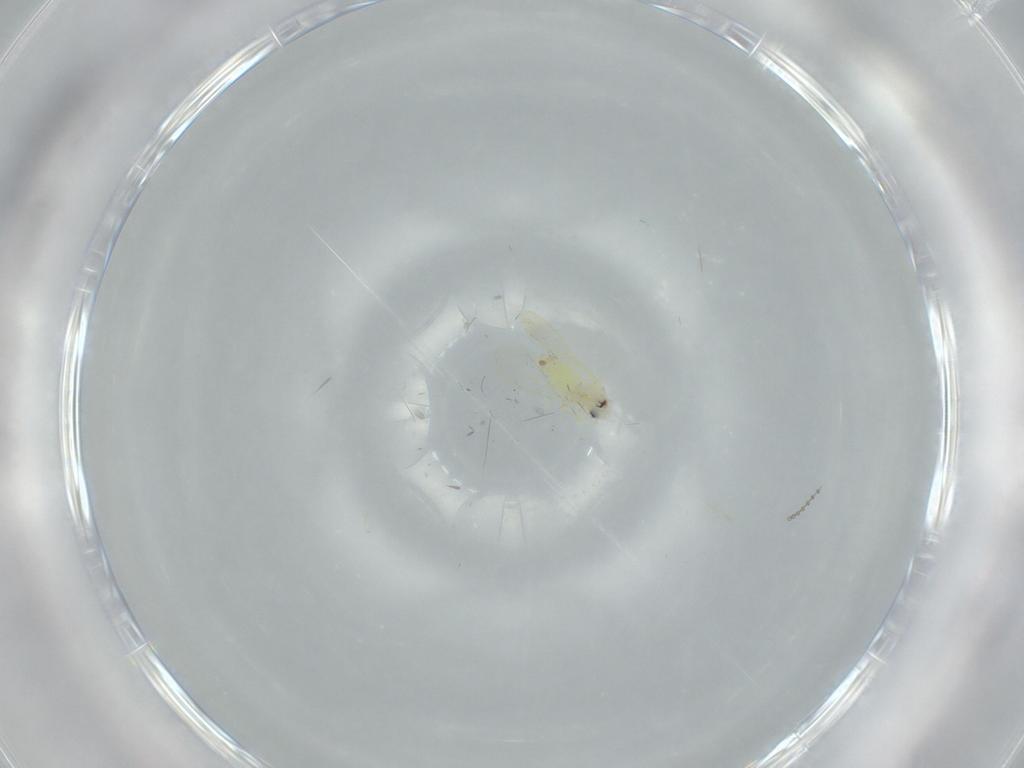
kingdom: Animalia
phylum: Arthropoda
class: Insecta
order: Hemiptera
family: Aleyrodidae
